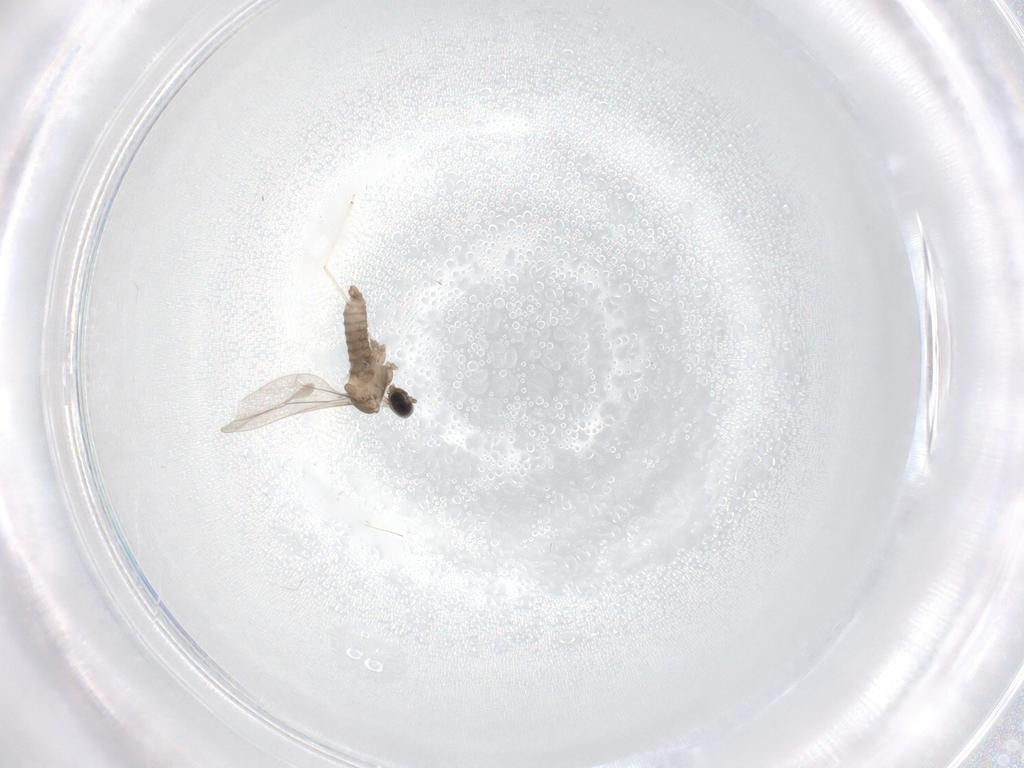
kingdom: Animalia
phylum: Arthropoda
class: Insecta
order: Diptera
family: Cecidomyiidae
